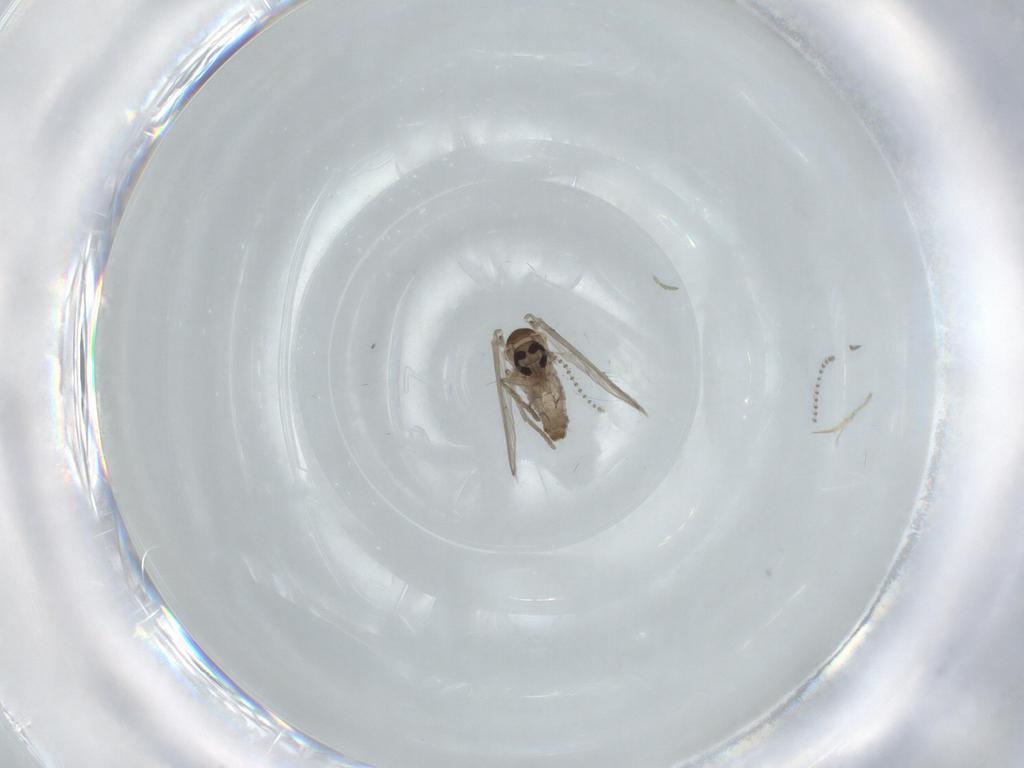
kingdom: Animalia
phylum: Arthropoda
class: Insecta
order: Diptera
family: Psychodidae
